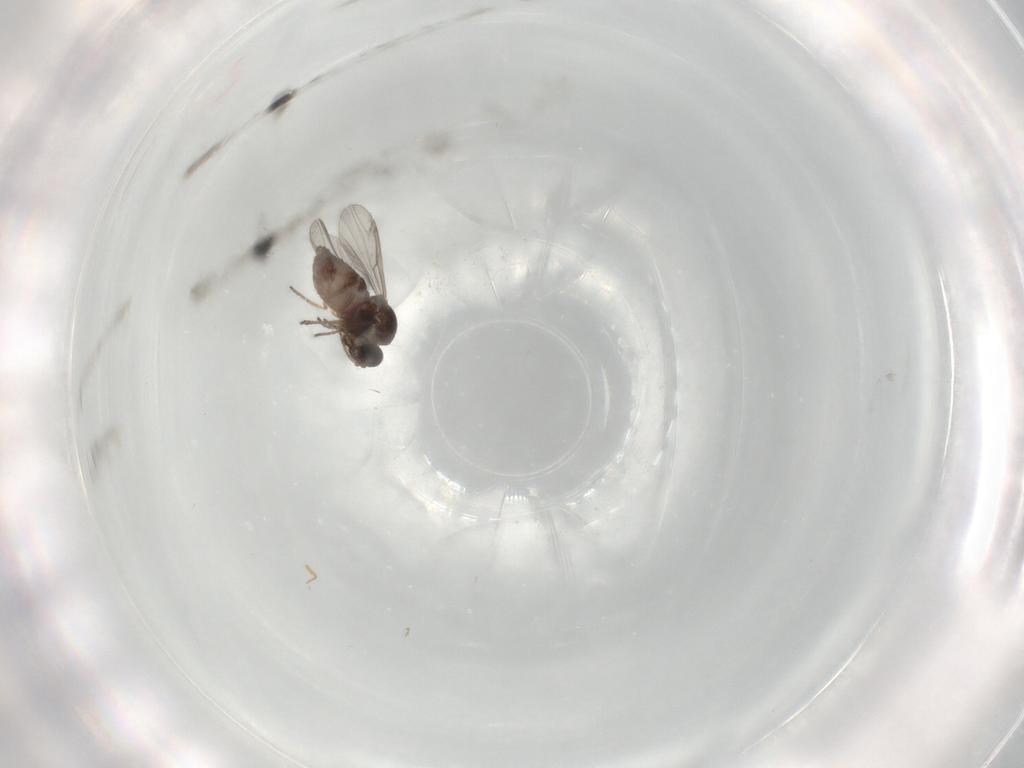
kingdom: Animalia
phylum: Arthropoda
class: Insecta
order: Diptera
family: Ceratopogonidae
